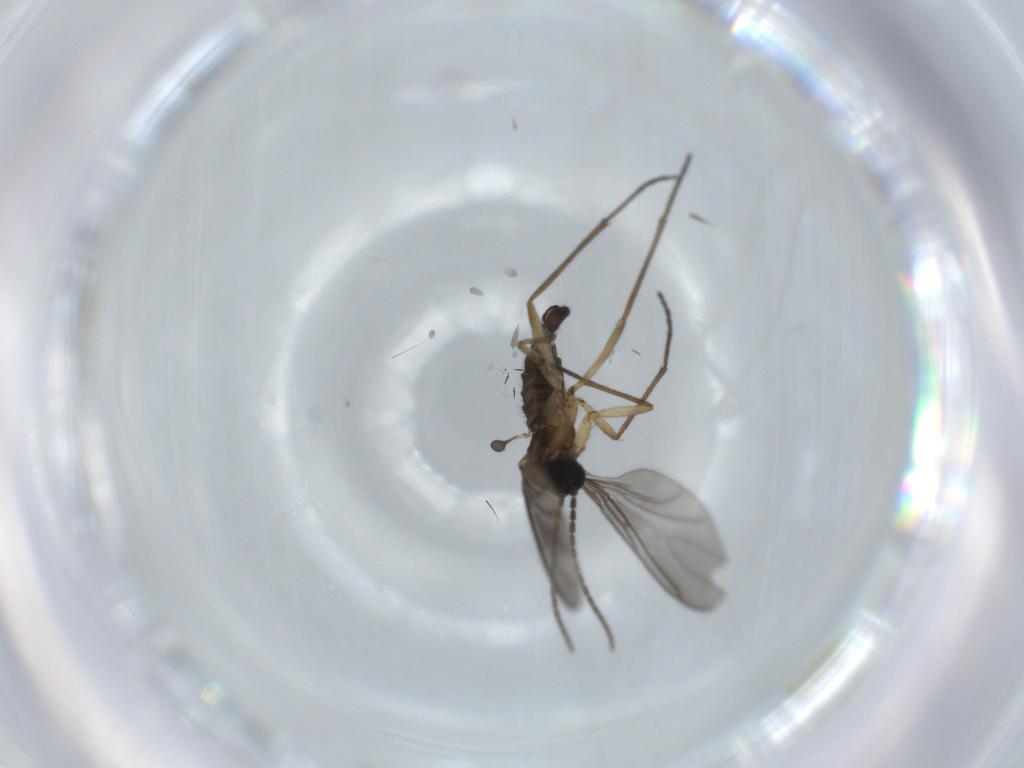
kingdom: Animalia
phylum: Arthropoda
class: Insecta
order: Diptera
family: Sciaridae
